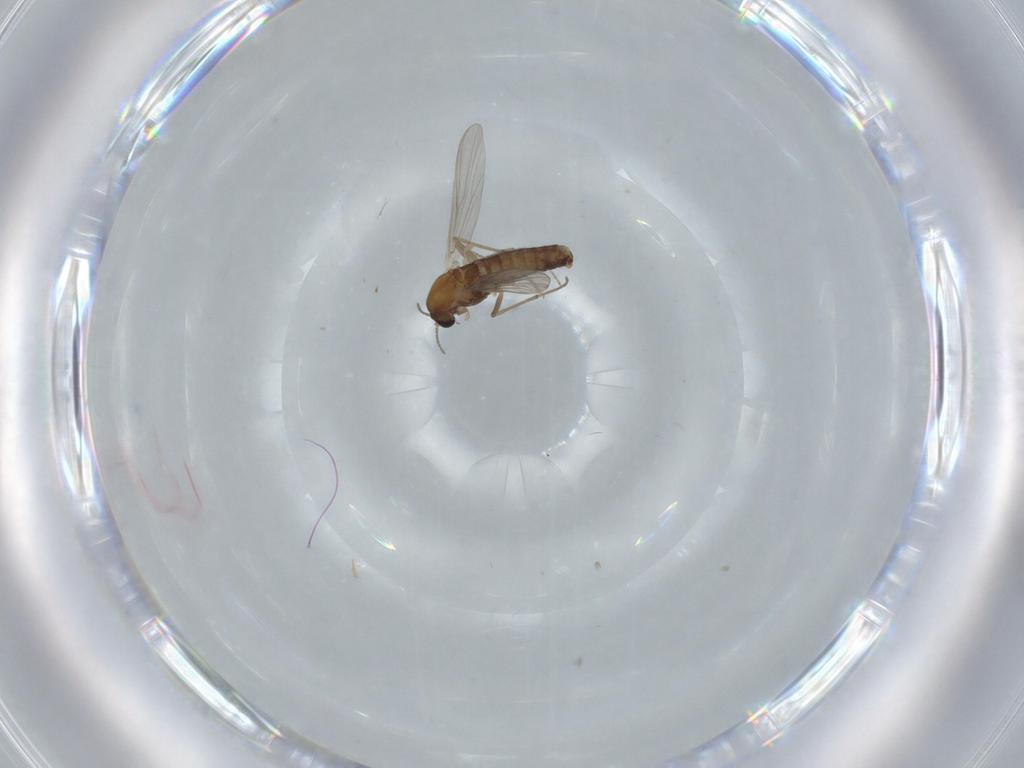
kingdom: Animalia
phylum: Arthropoda
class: Insecta
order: Diptera
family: Chironomidae
